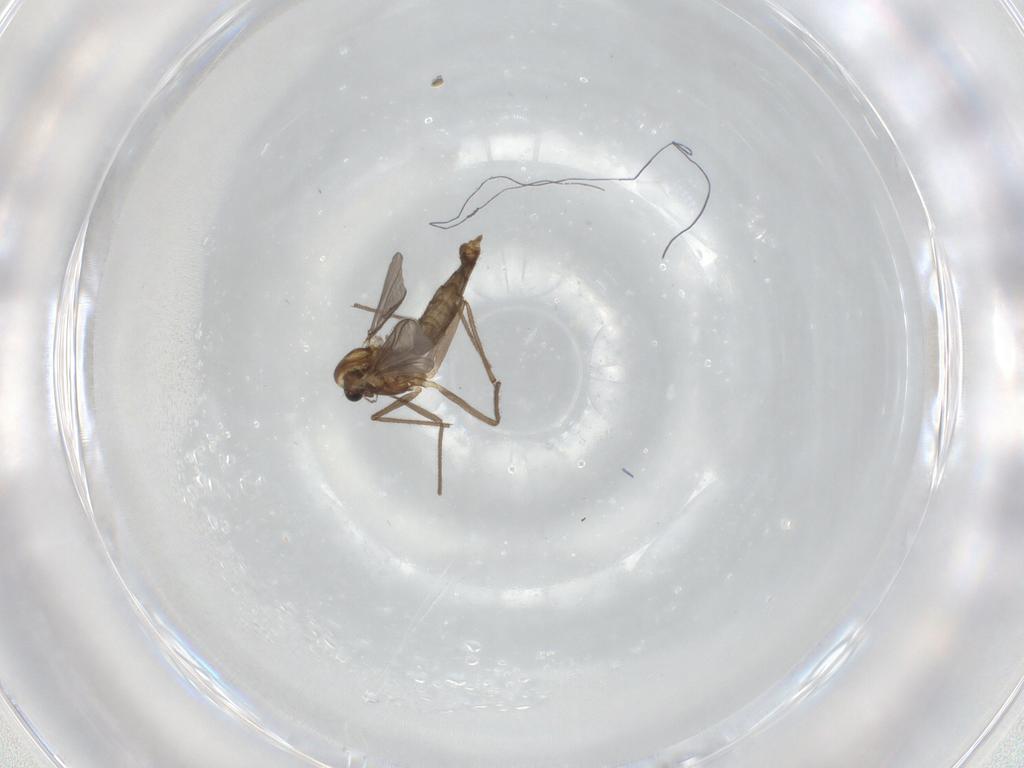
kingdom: Animalia
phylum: Arthropoda
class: Insecta
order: Diptera
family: Chironomidae
